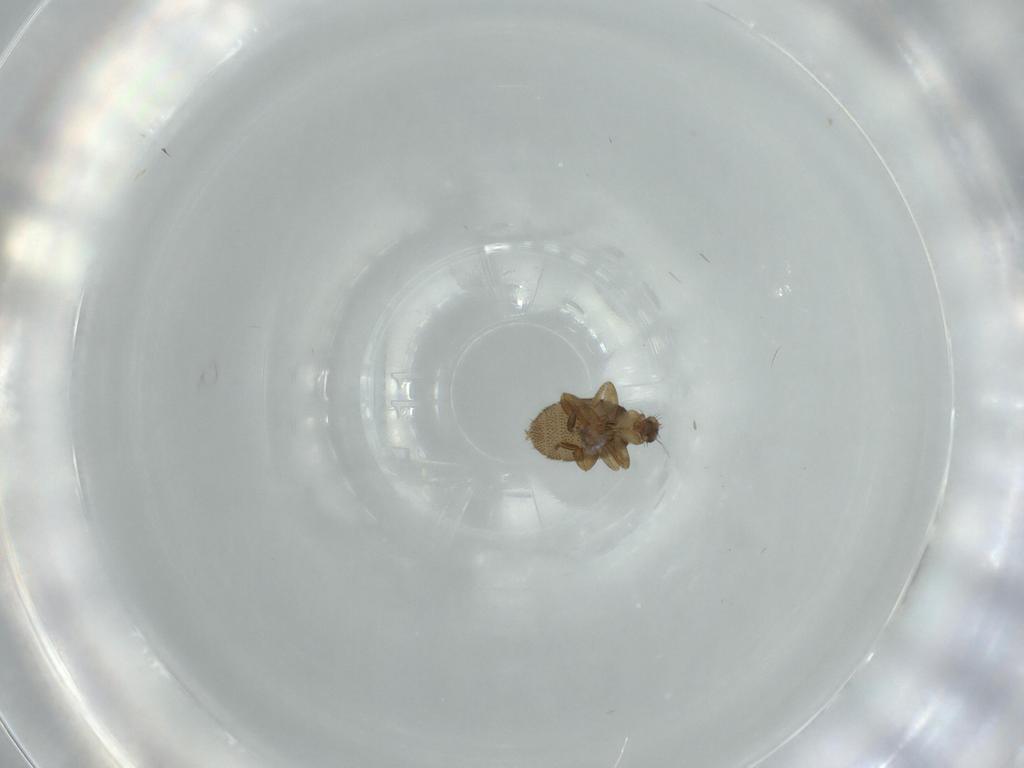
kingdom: Animalia
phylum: Arthropoda
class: Insecta
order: Diptera
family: Phoridae
